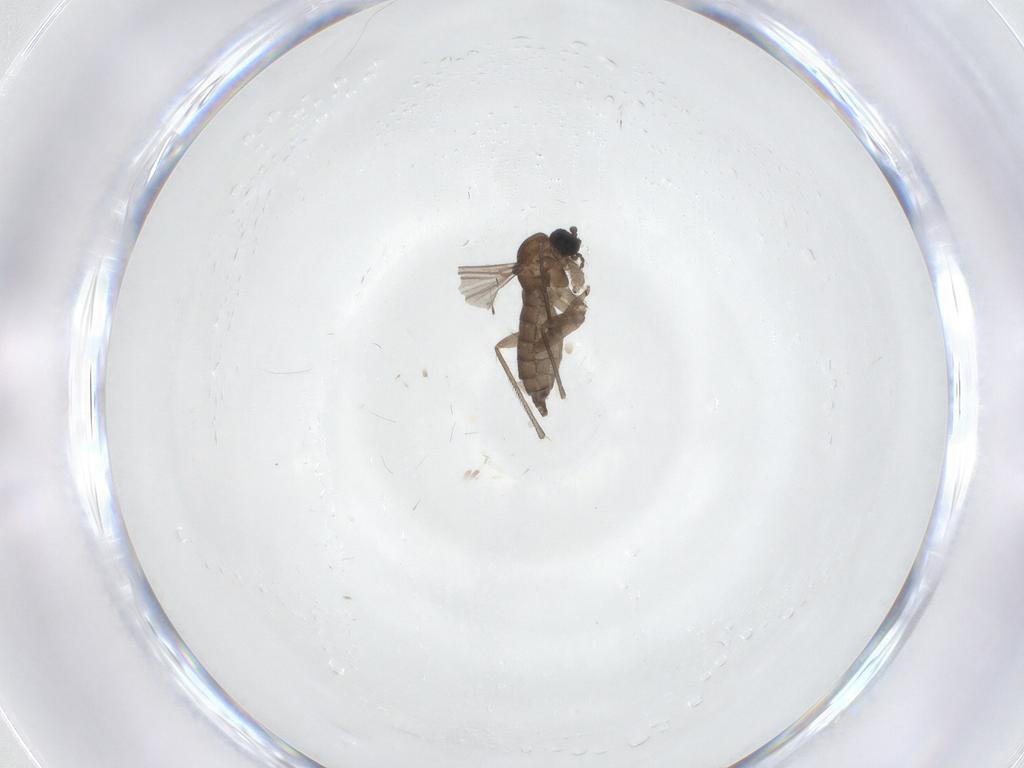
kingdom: Animalia
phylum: Arthropoda
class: Insecta
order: Diptera
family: Sciaridae
